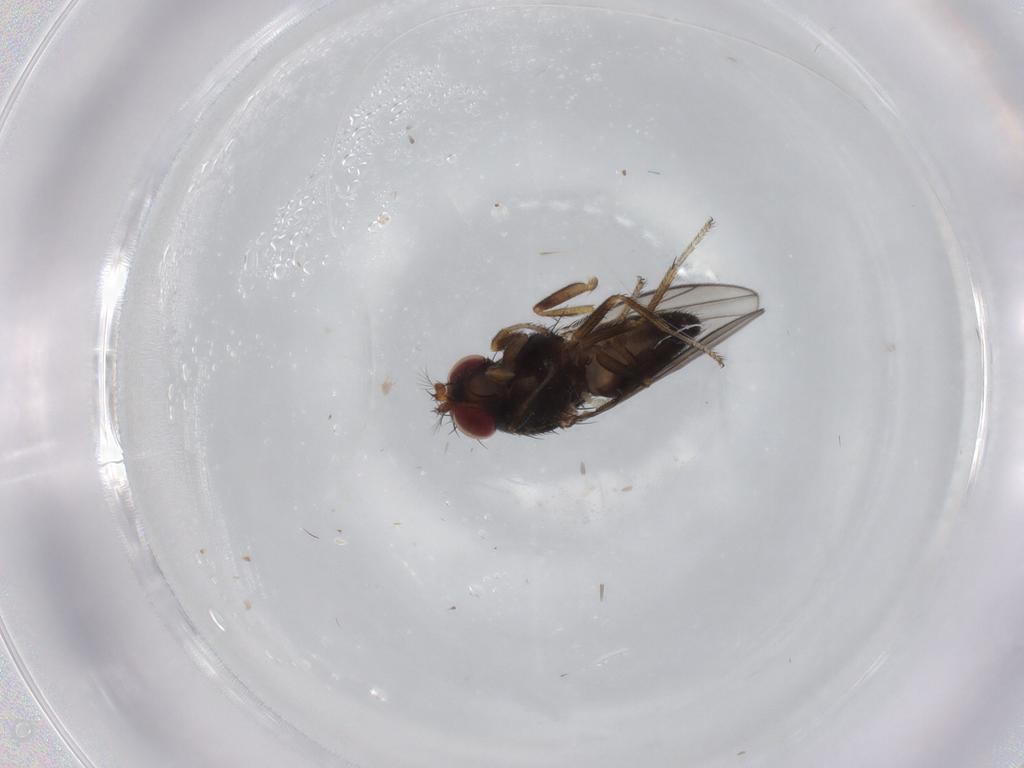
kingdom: Animalia
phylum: Arthropoda
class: Insecta
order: Diptera
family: Ephydridae
